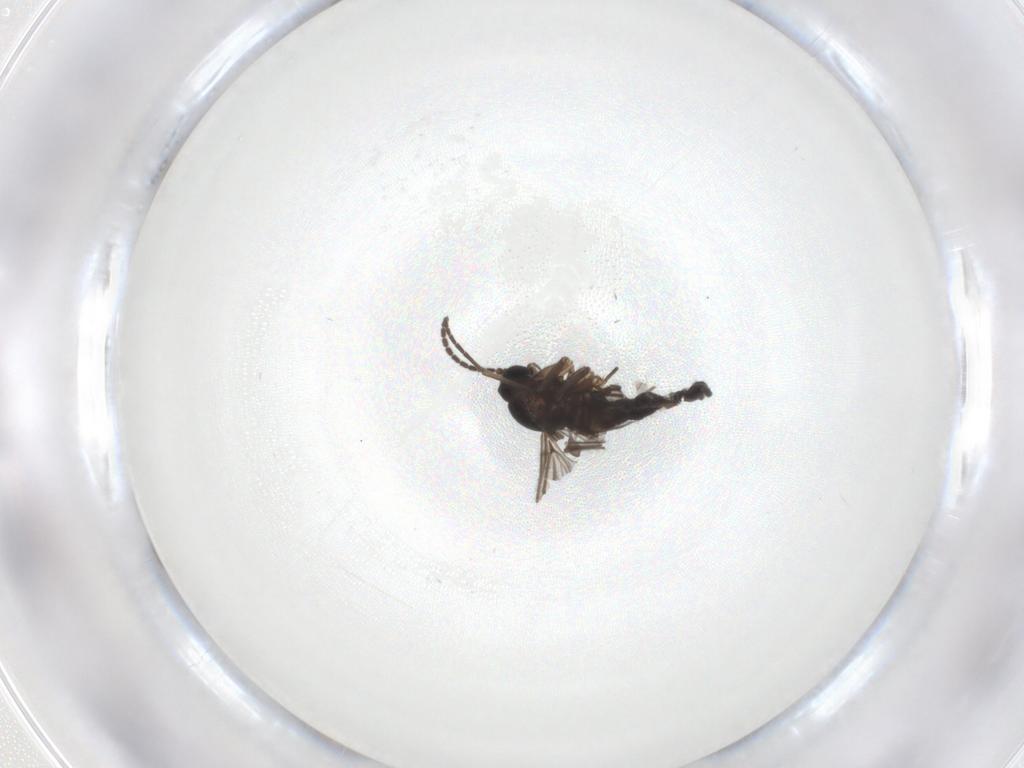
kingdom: Animalia
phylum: Arthropoda
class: Insecta
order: Diptera
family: Sciaridae
